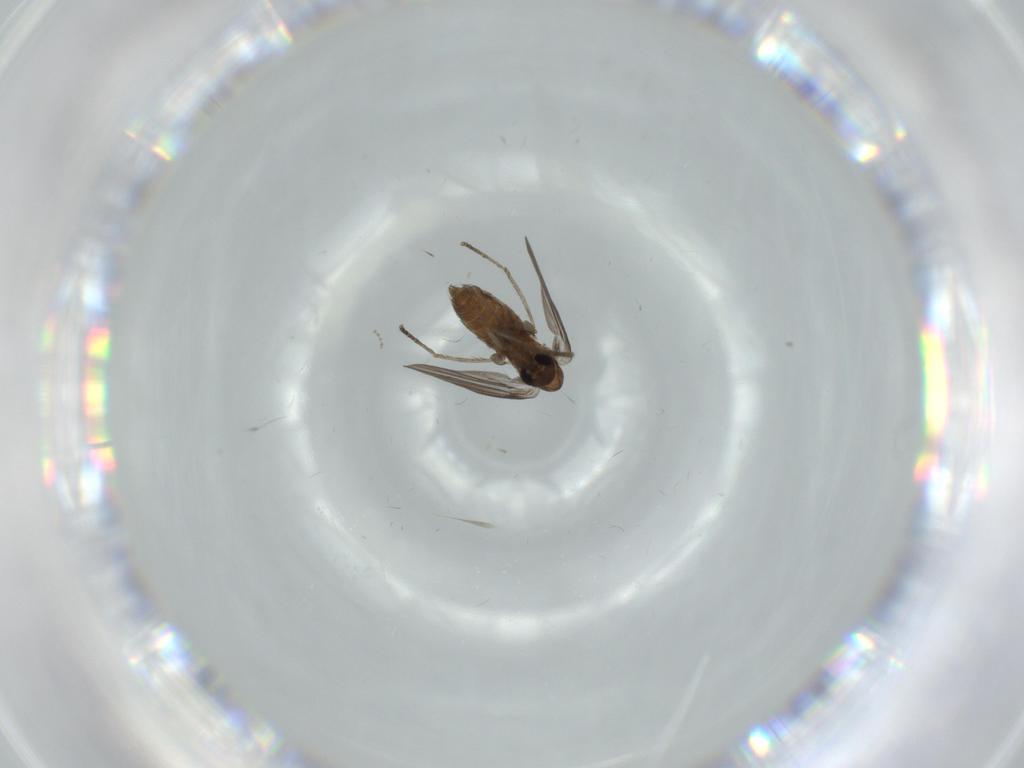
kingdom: Animalia
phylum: Arthropoda
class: Insecta
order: Diptera
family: Psychodidae
